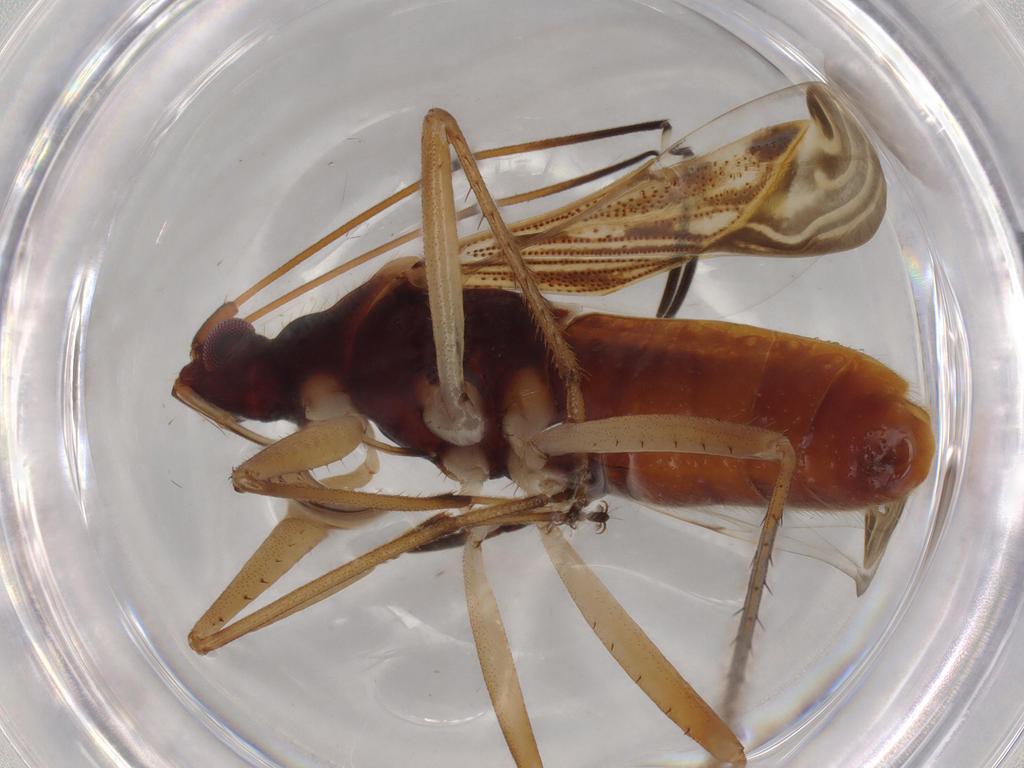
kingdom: Animalia
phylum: Arthropoda
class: Insecta
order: Hemiptera
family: Rhyparochromidae
